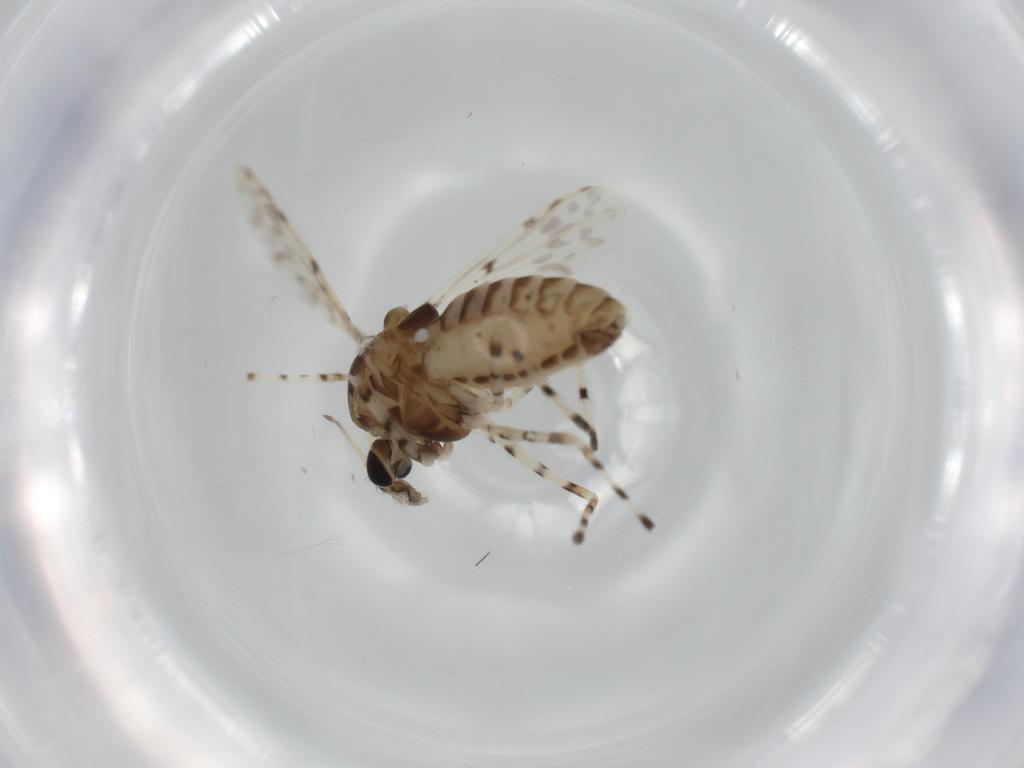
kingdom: Animalia
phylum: Arthropoda
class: Insecta
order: Diptera
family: Chironomidae
